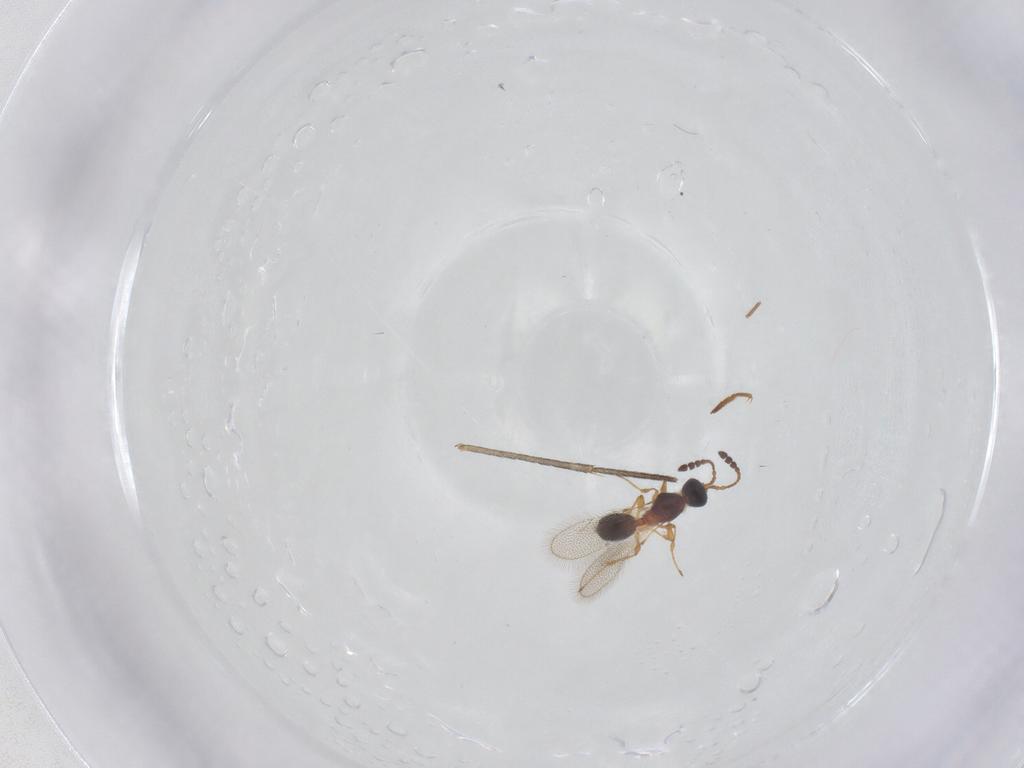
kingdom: Animalia
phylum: Arthropoda
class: Insecta
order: Hymenoptera
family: Diapriidae
